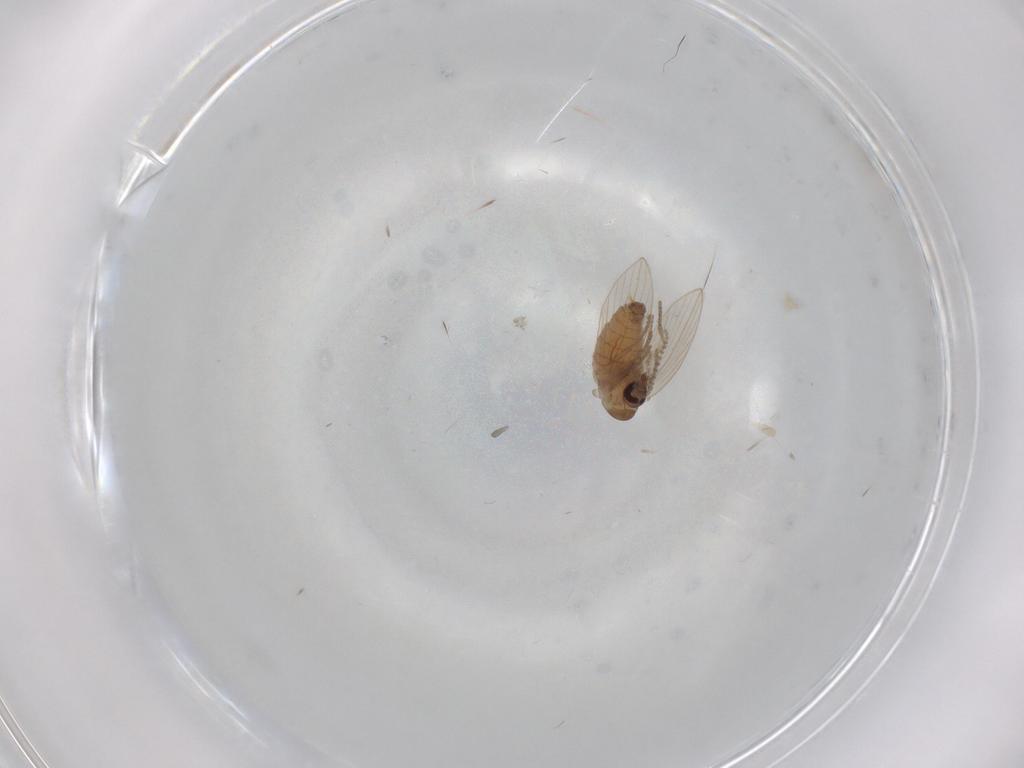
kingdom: Animalia
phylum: Arthropoda
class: Insecta
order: Diptera
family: Psychodidae
